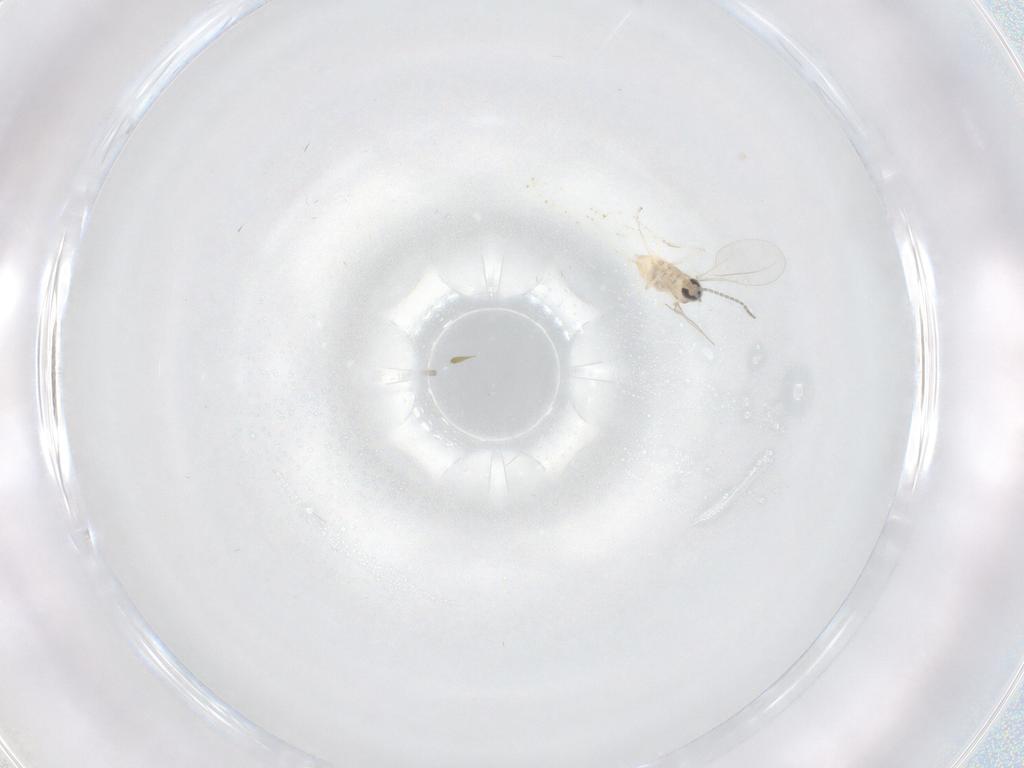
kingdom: Animalia
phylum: Arthropoda
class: Insecta
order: Diptera
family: Cecidomyiidae
